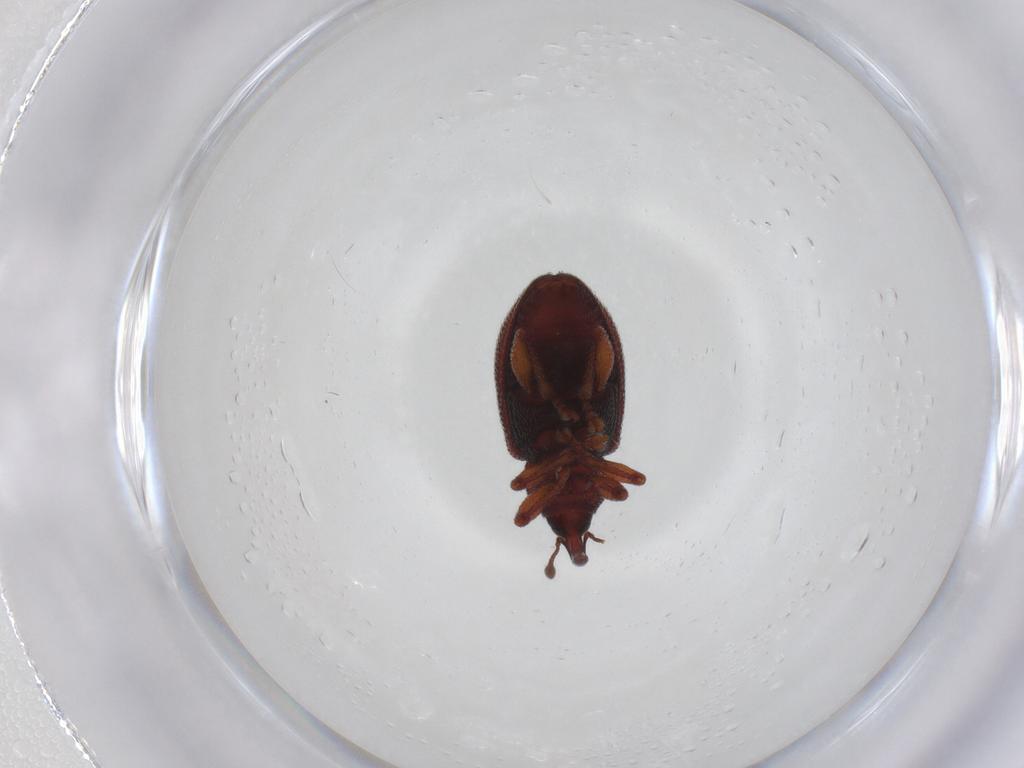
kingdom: Animalia
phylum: Arthropoda
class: Insecta
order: Coleoptera
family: Curculionidae
